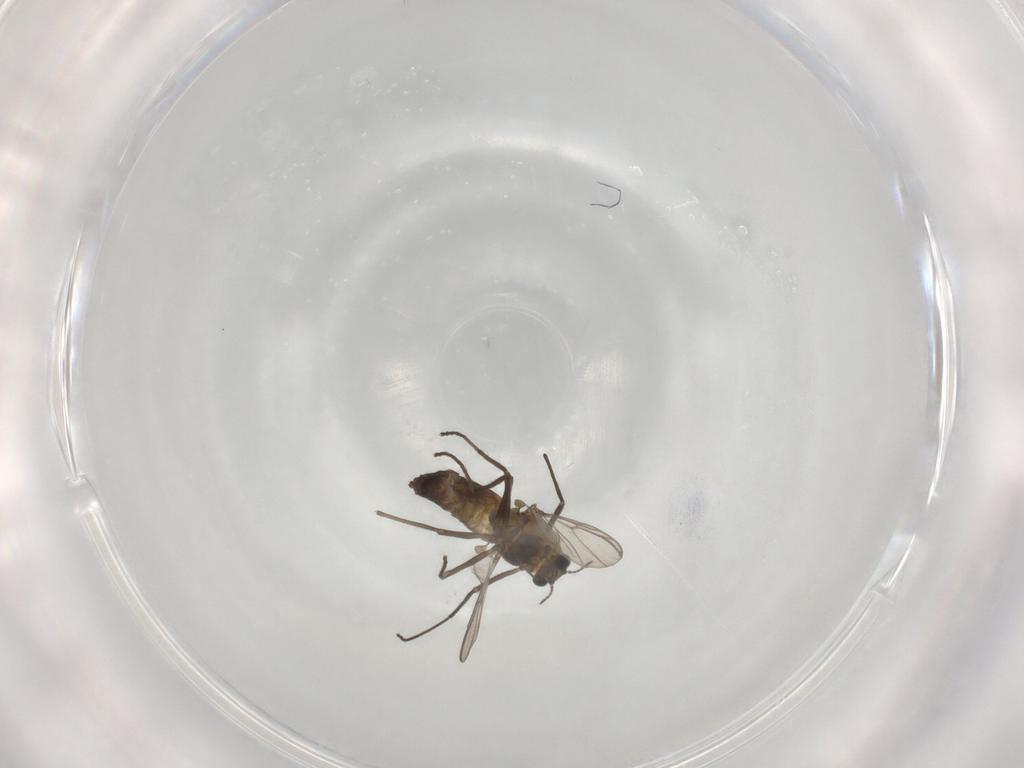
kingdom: Animalia
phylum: Arthropoda
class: Insecta
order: Diptera
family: Chironomidae
